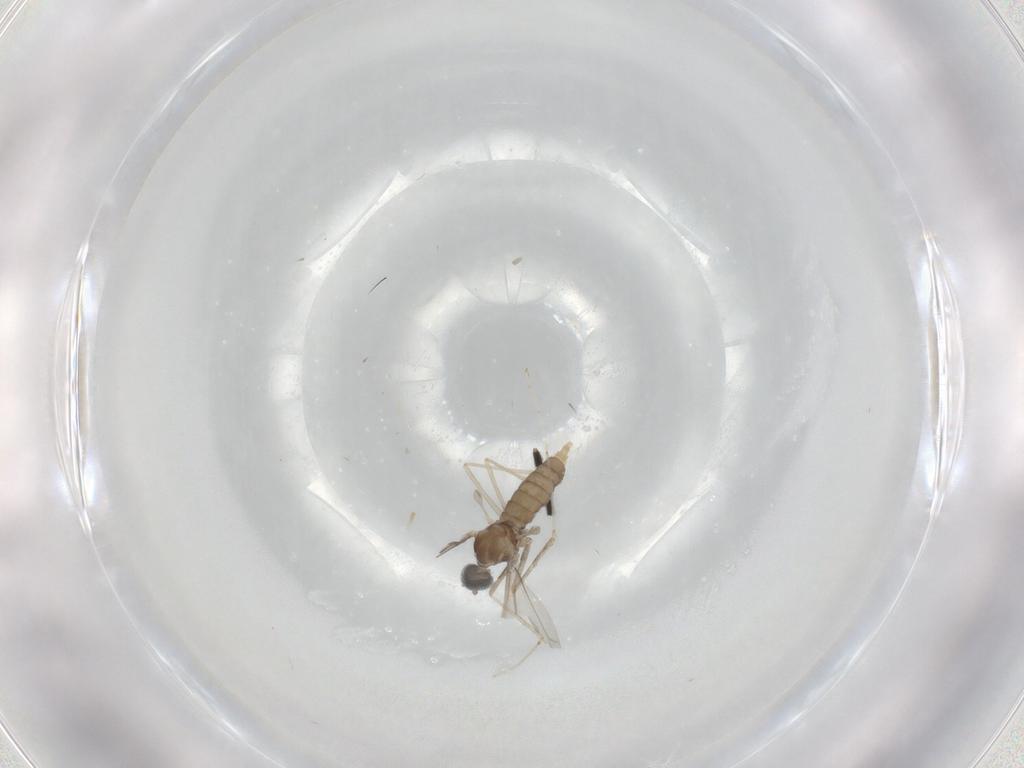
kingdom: Animalia
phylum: Arthropoda
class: Insecta
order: Diptera
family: Cecidomyiidae
